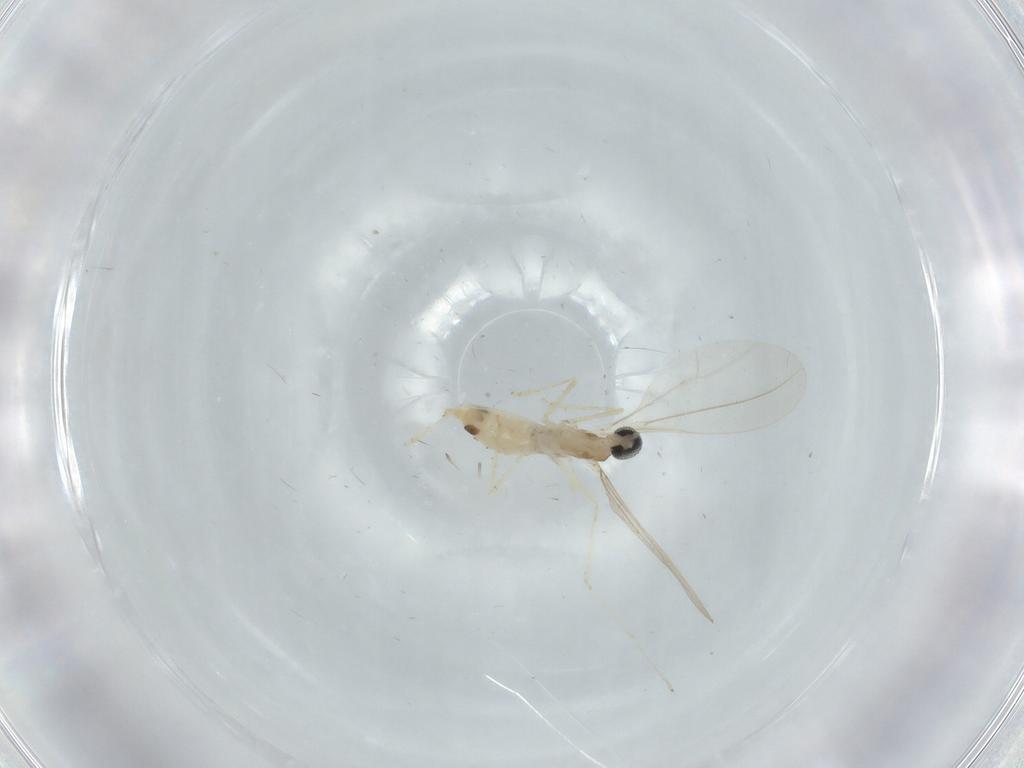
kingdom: Animalia
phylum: Arthropoda
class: Insecta
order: Diptera
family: Cecidomyiidae
